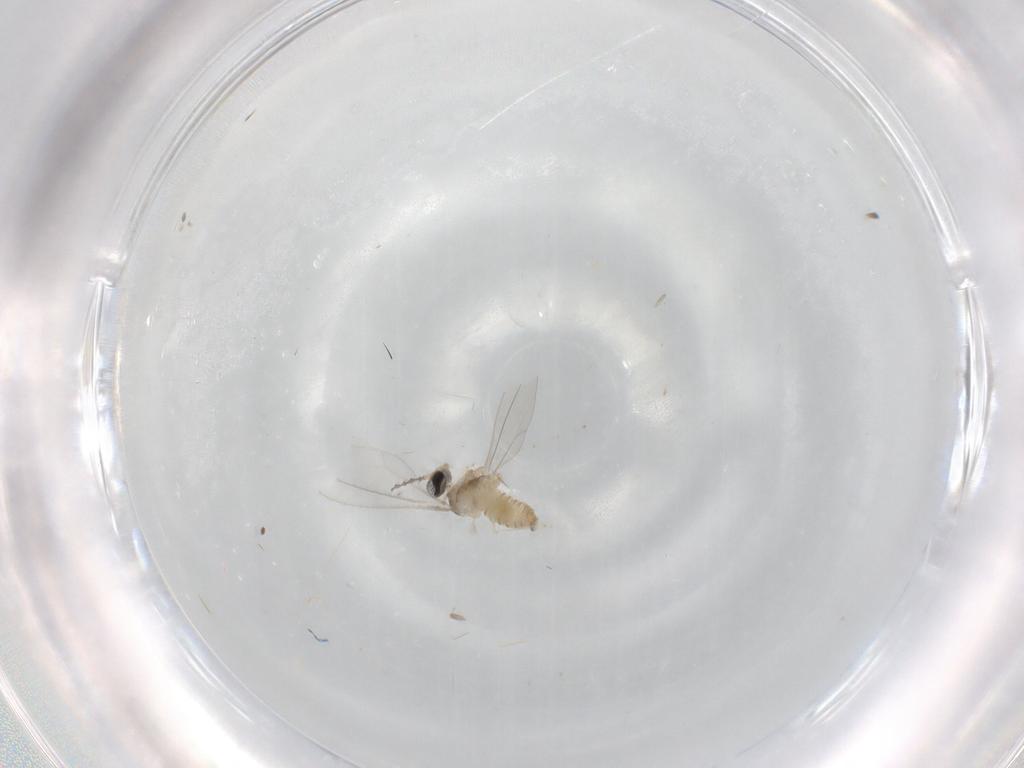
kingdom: Animalia
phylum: Arthropoda
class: Insecta
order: Diptera
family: Cecidomyiidae
